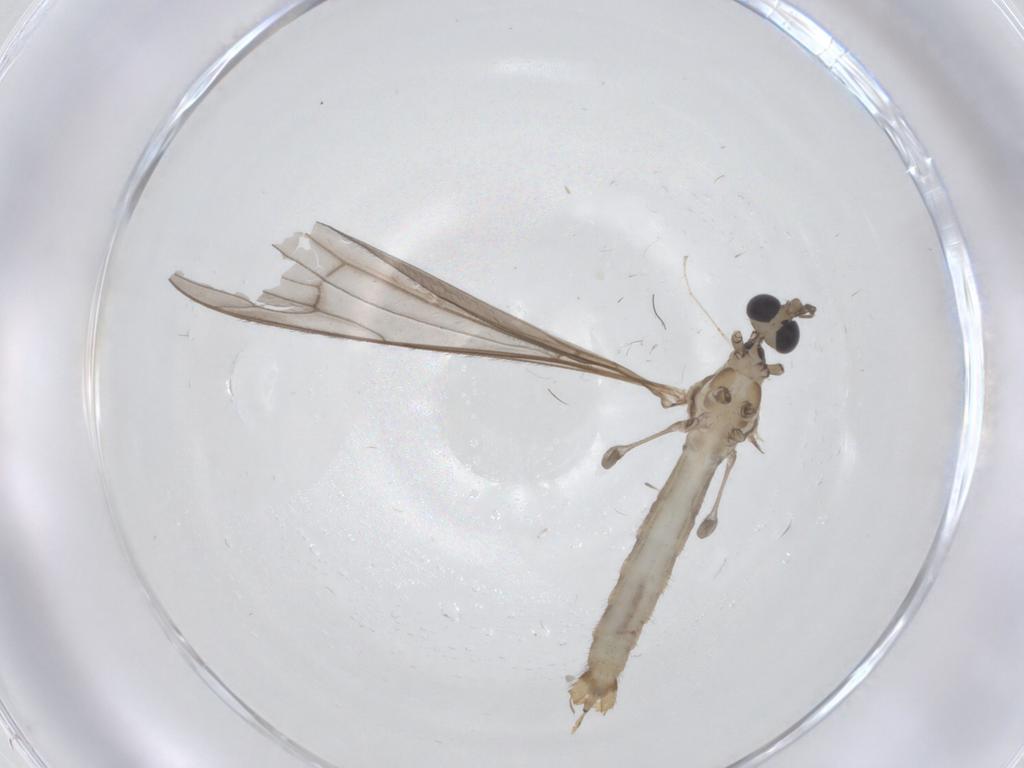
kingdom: Animalia
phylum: Arthropoda
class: Insecta
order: Diptera
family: Limoniidae
